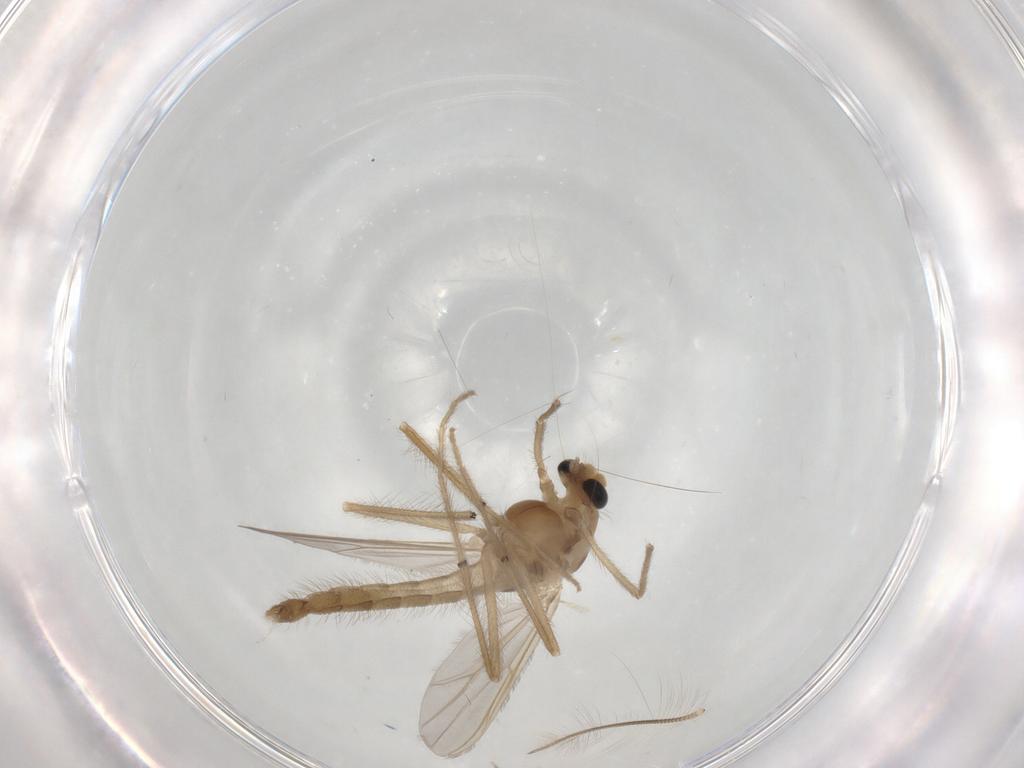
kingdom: Animalia
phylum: Arthropoda
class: Insecta
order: Diptera
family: Chironomidae
